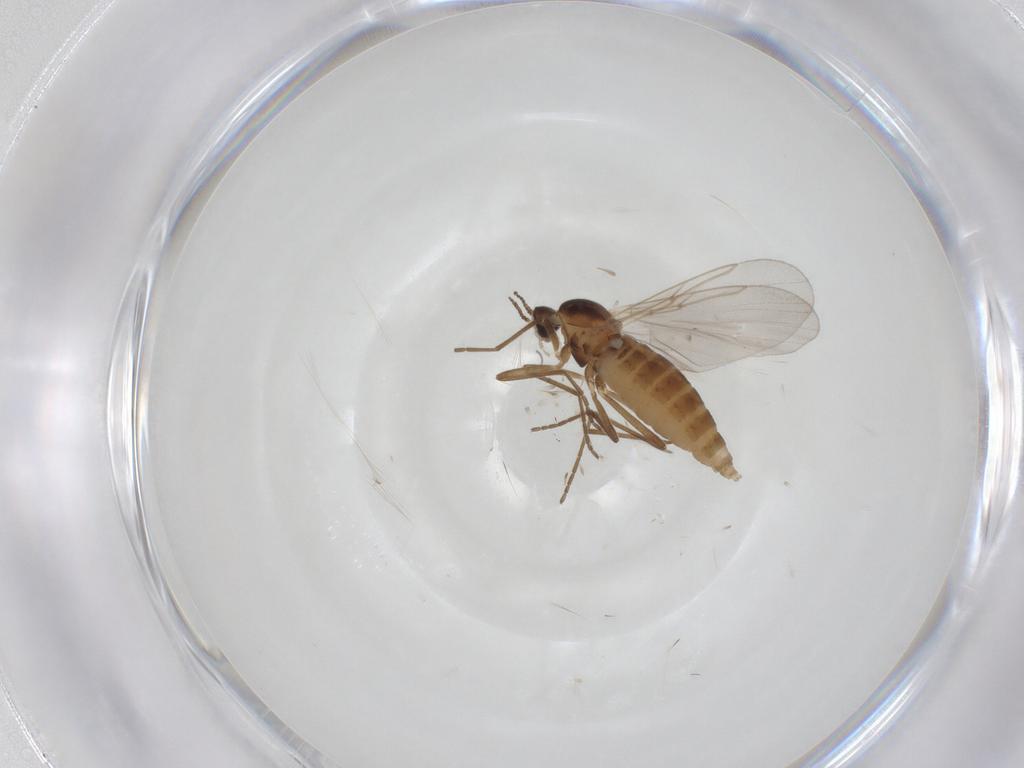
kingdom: Animalia
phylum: Arthropoda
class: Insecta
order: Diptera
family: Cecidomyiidae
